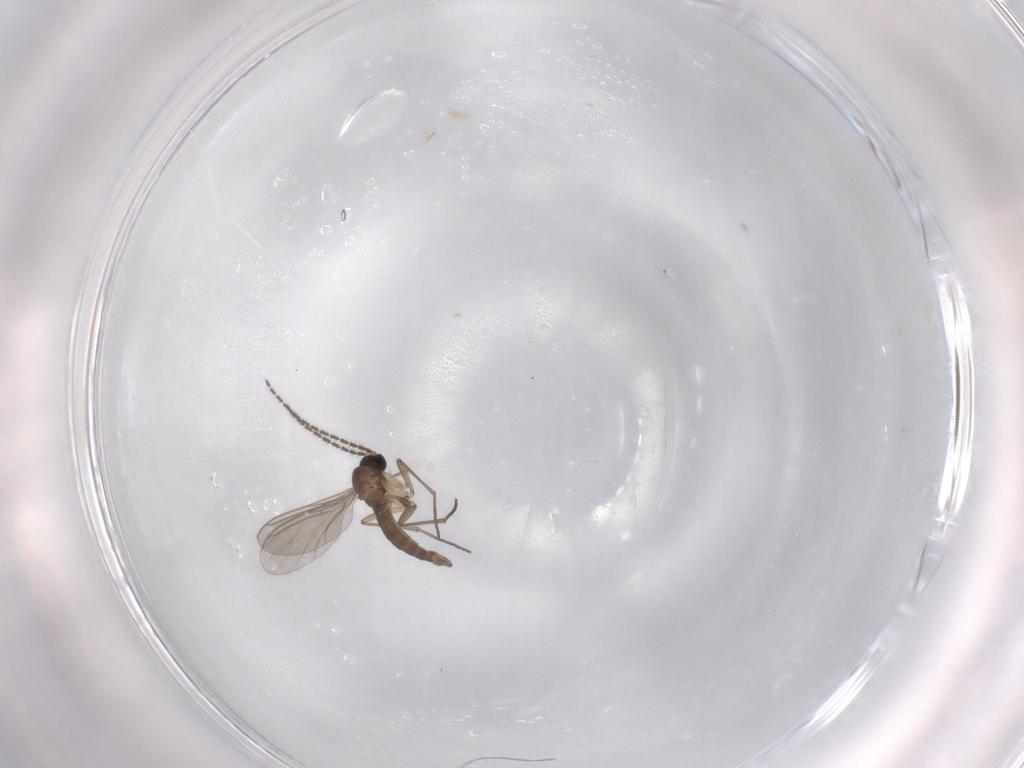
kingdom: Animalia
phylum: Arthropoda
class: Insecta
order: Diptera
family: Sciaridae
